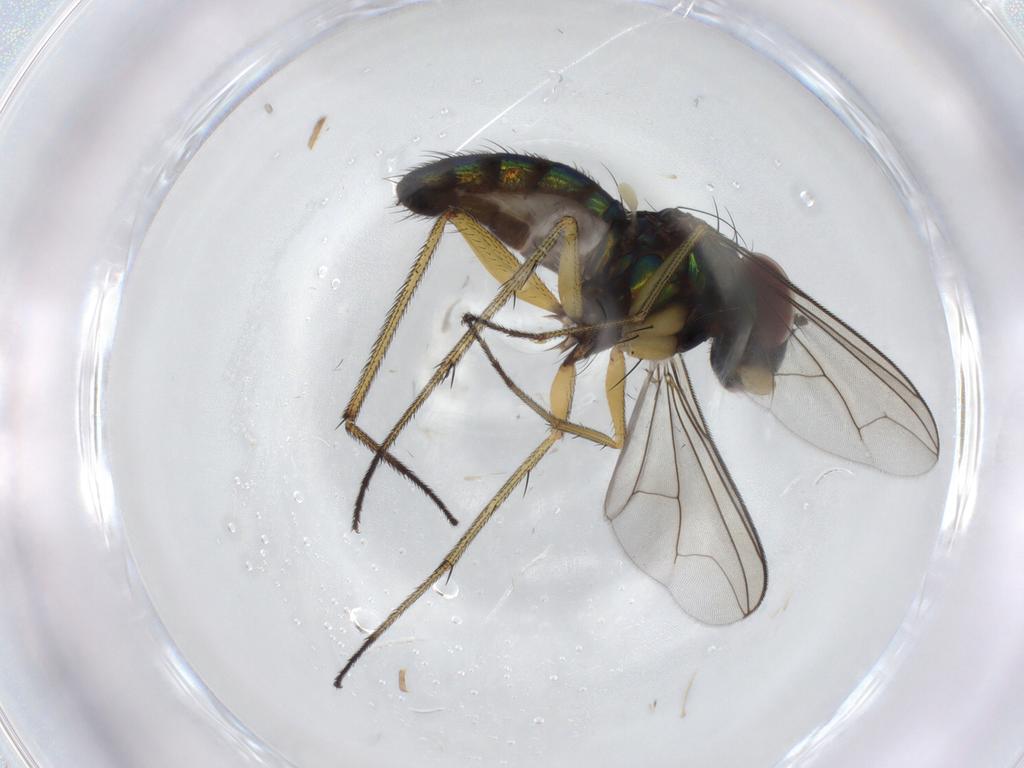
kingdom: Animalia
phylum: Arthropoda
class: Insecta
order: Diptera
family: Dolichopodidae
